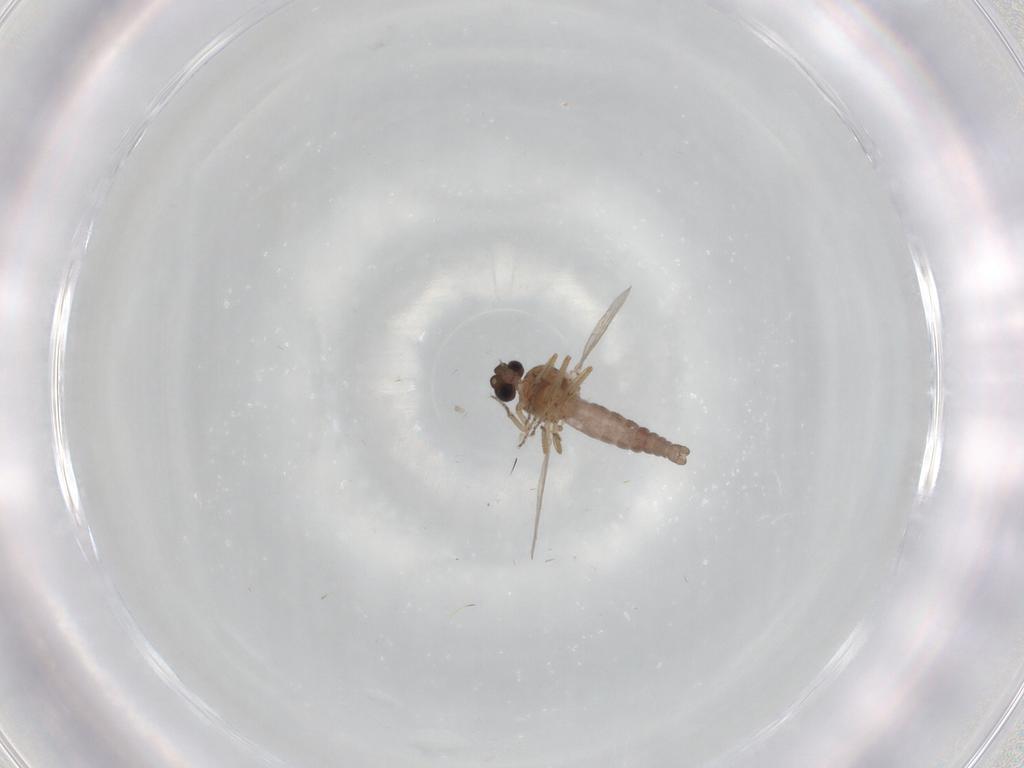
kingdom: Animalia
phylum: Arthropoda
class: Insecta
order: Diptera
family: Ceratopogonidae
